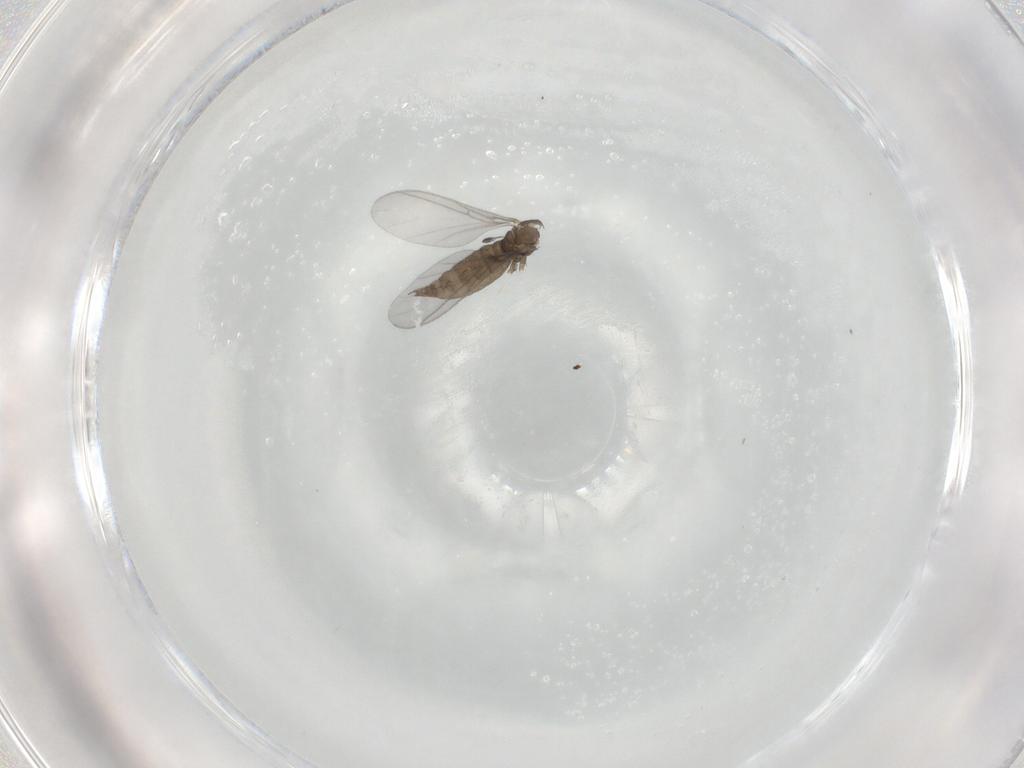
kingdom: Animalia
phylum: Arthropoda
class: Insecta
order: Diptera
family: Sciaridae
